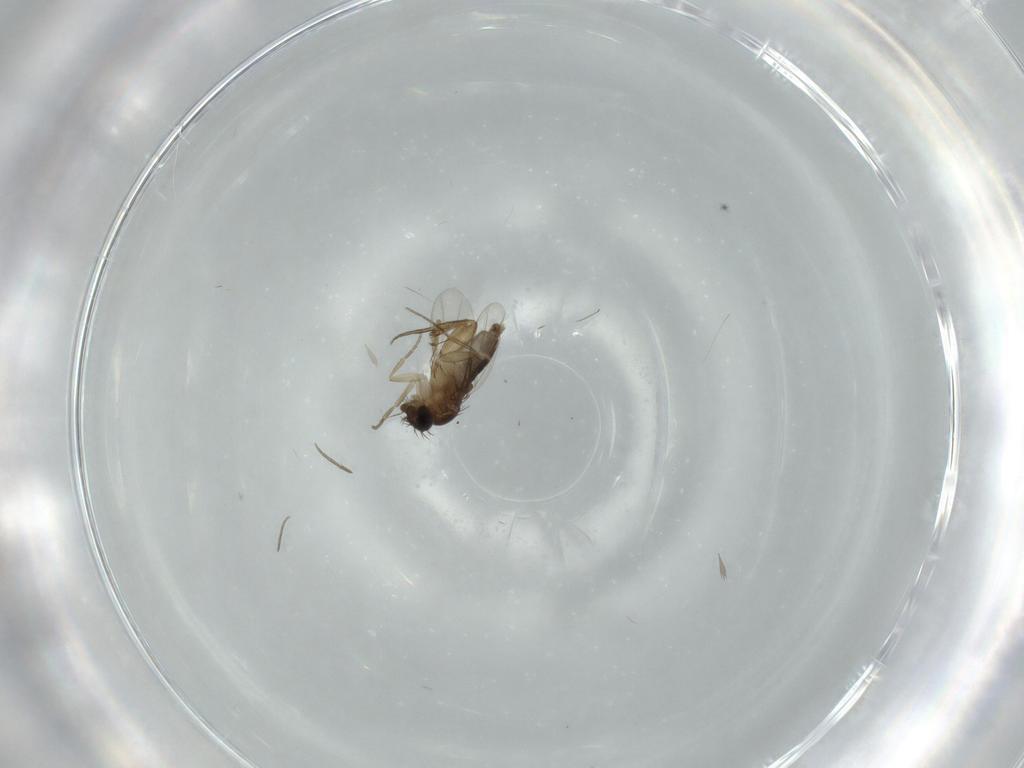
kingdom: Animalia
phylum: Arthropoda
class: Insecta
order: Diptera
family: Phoridae
